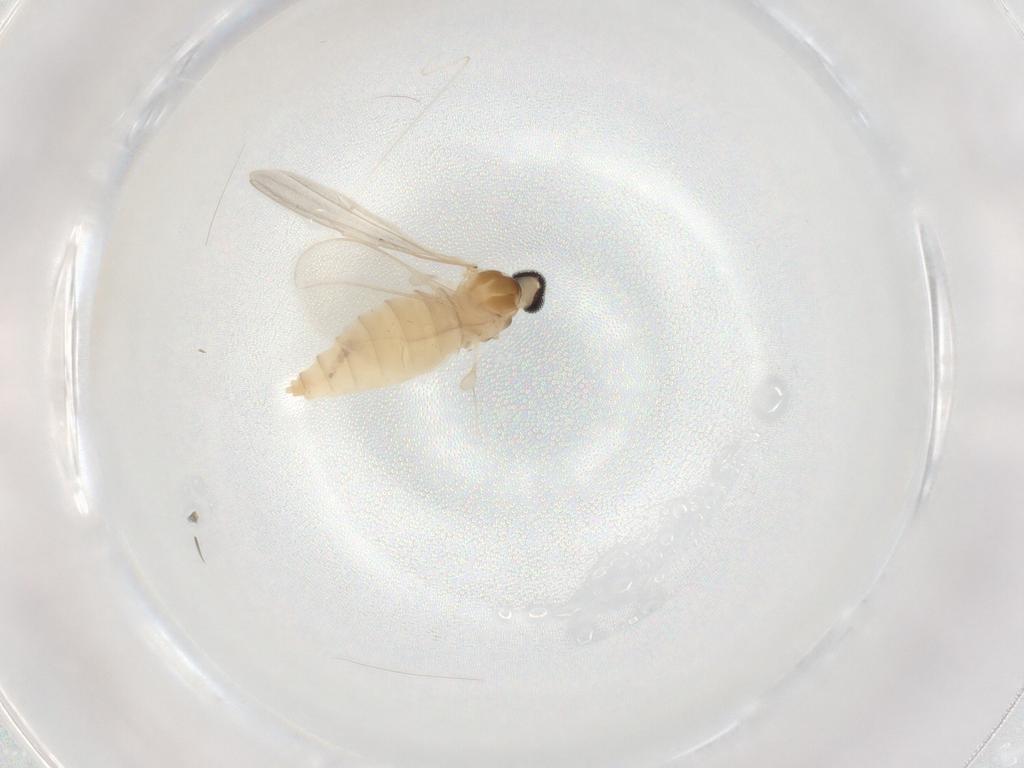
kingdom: Animalia
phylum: Arthropoda
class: Insecta
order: Diptera
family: Cecidomyiidae
